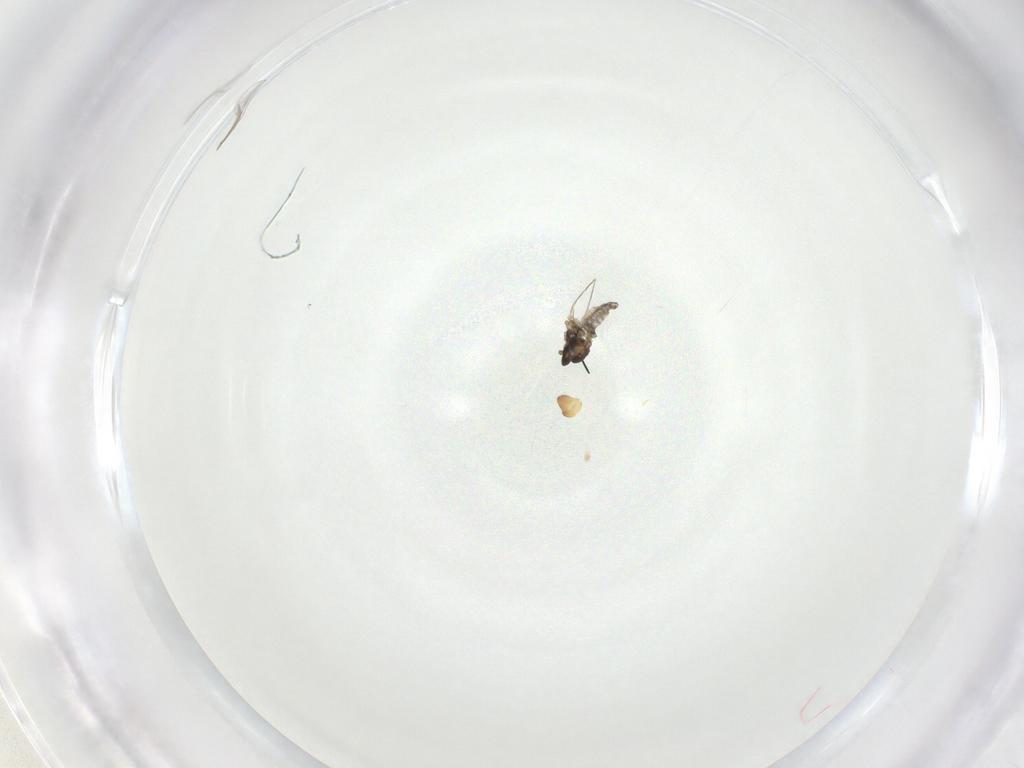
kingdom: Animalia
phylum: Arthropoda
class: Insecta
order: Diptera
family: Cecidomyiidae
